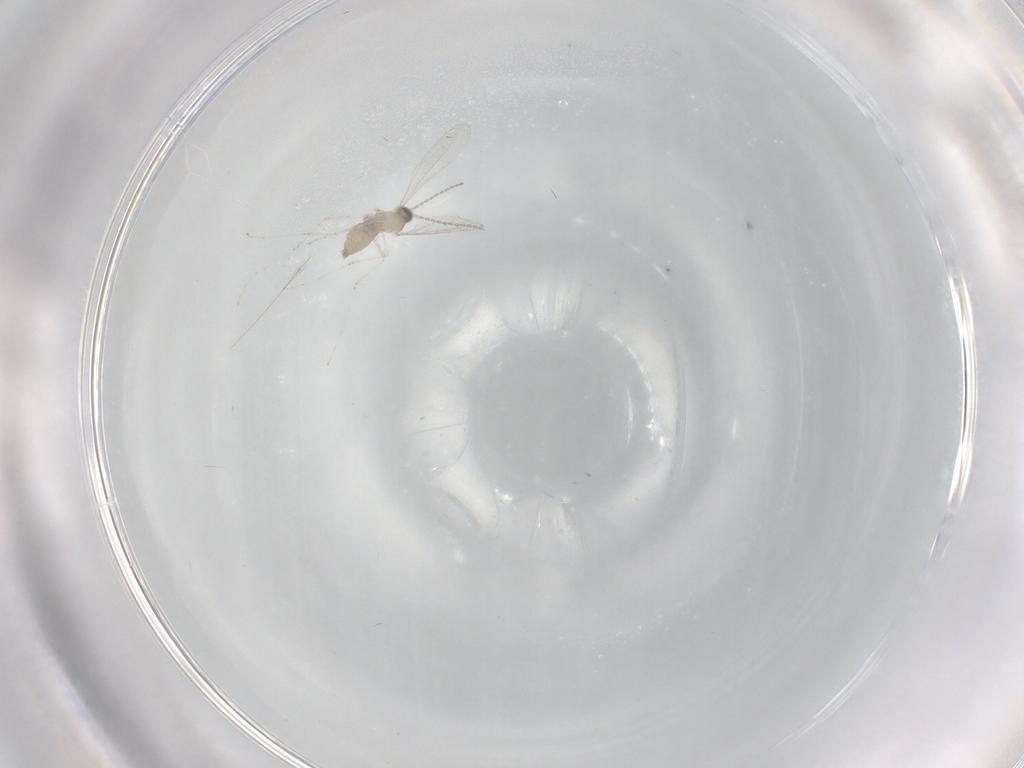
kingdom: Animalia
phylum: Arthropoda
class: Insecta
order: Diptera
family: Cecidomyiidae
